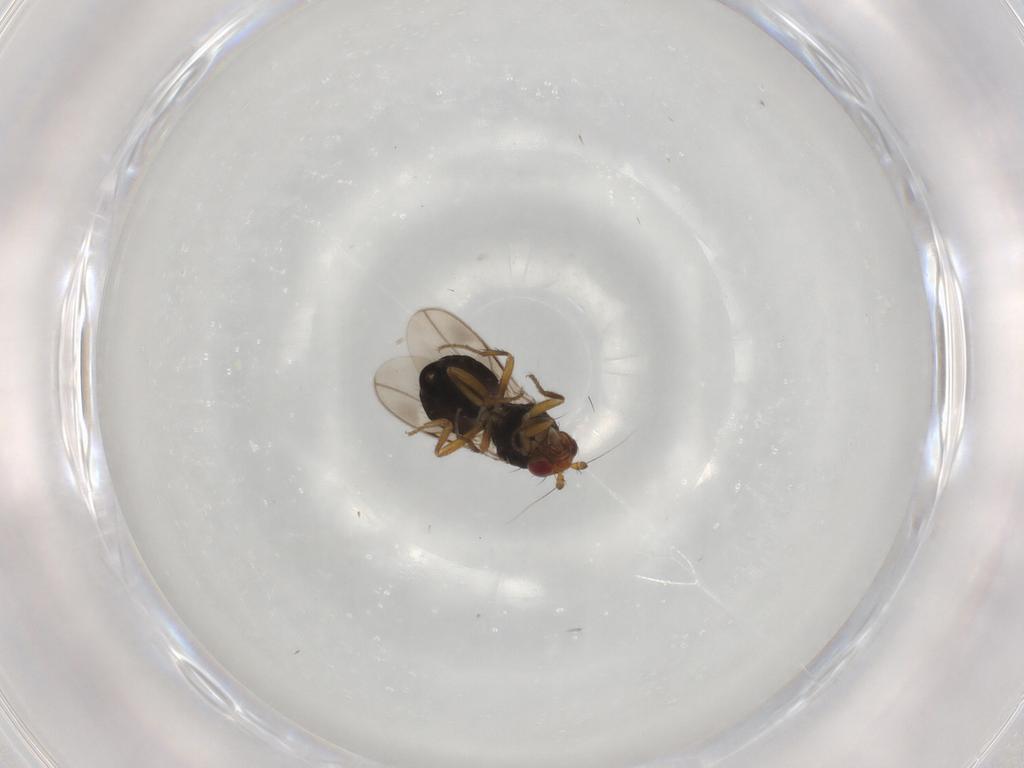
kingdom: Animalia
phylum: Arthropoda
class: Insecta
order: Diptera
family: Sphaeroceridae
